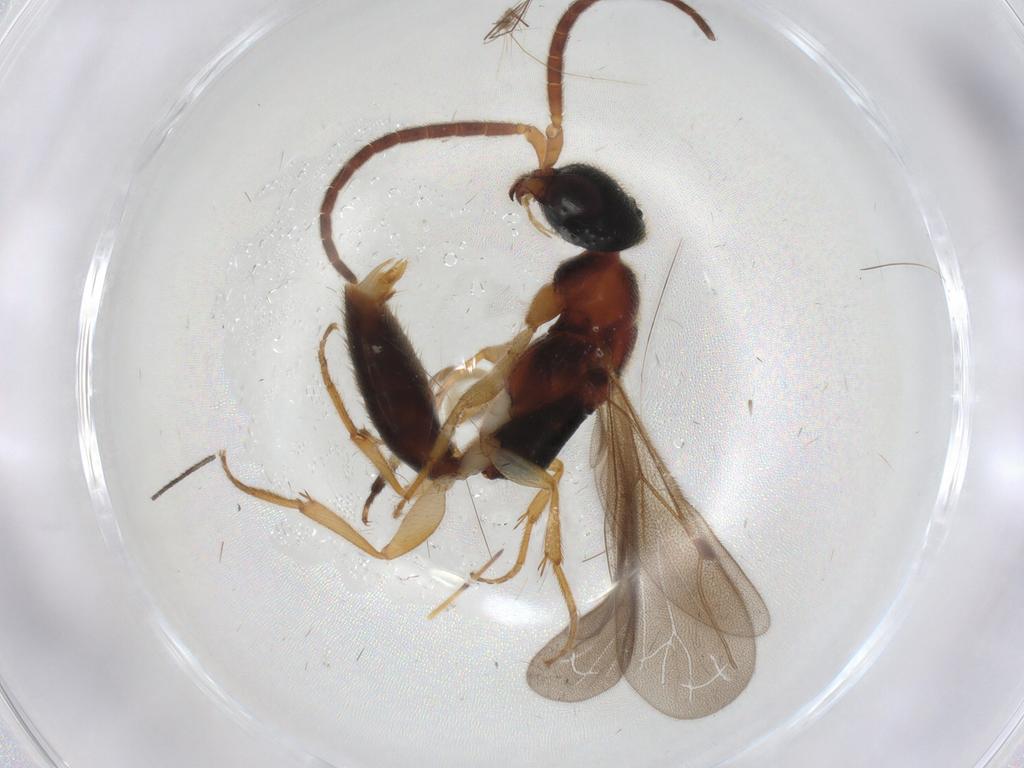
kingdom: Animalia
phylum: Arthropoda
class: Insecta
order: Hymenoptera
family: Bethylidae
